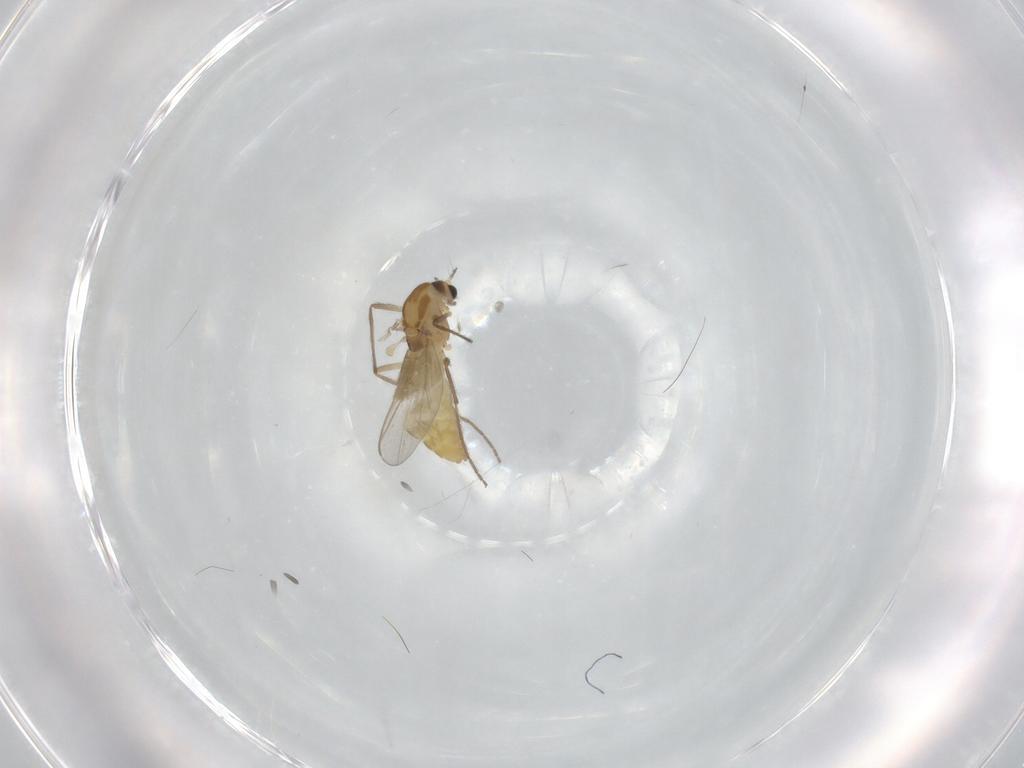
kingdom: Animalia
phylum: Arthropoda
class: Insecta
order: Diptera
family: Chironomidae
